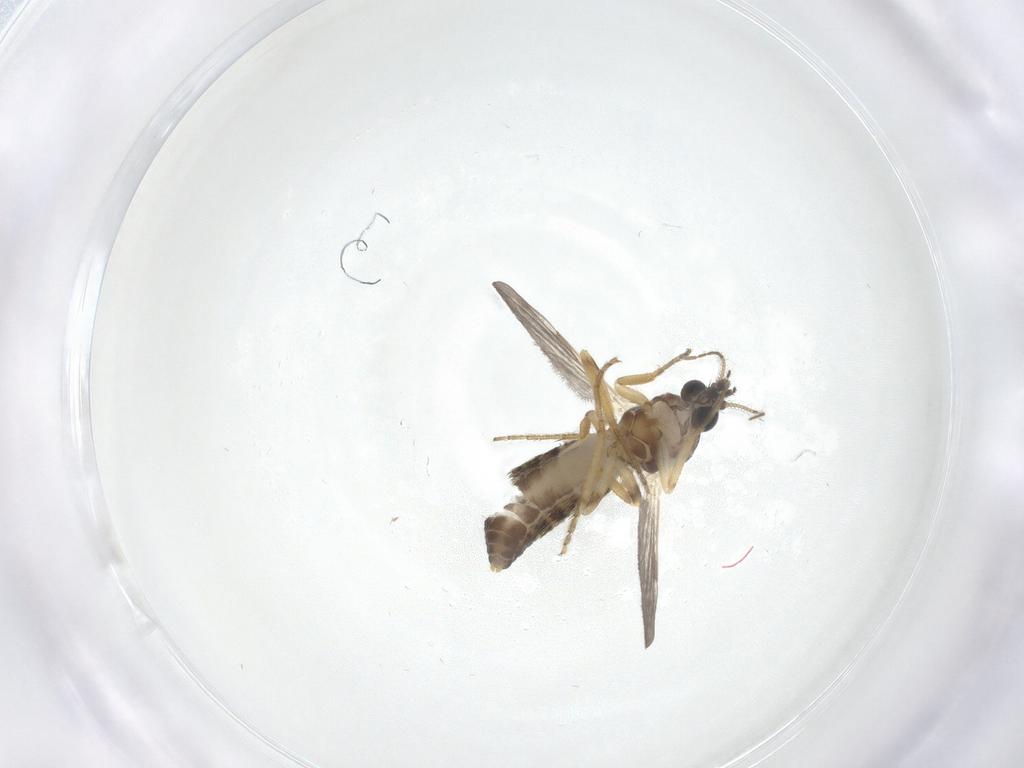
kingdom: Animalia
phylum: Arthropoda
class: Insecta
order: Diptera
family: Ceratopogonidae
